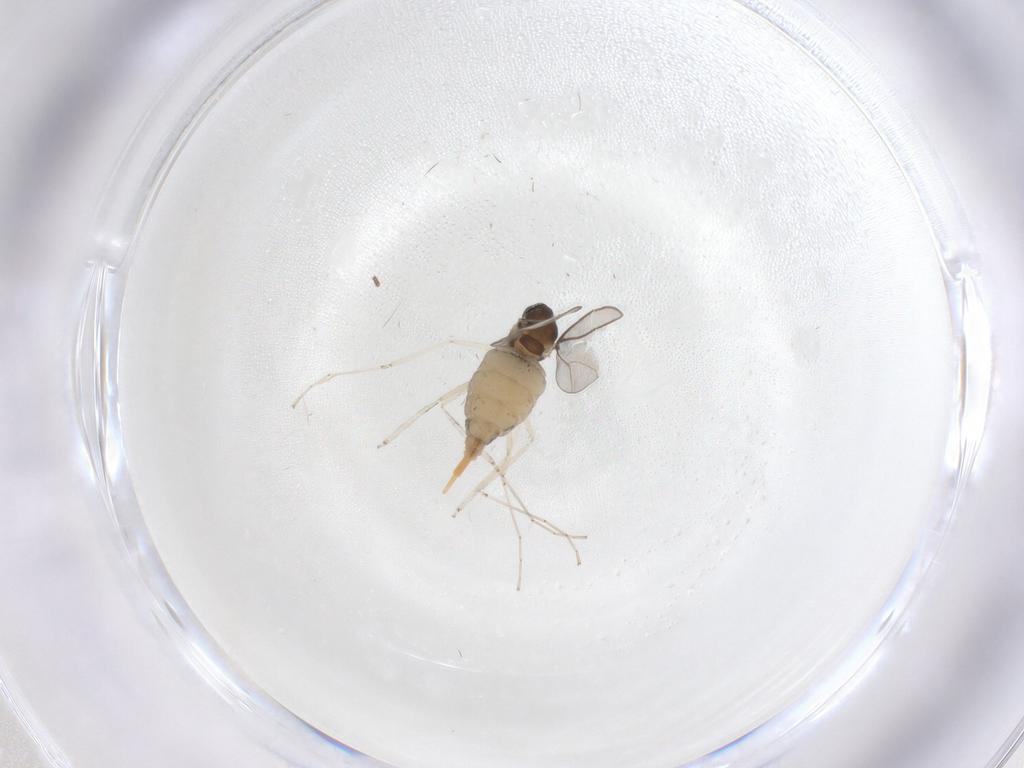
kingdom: Animalia
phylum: Arthropoda
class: Insecta
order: Diptera
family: Cecidomyiidae
